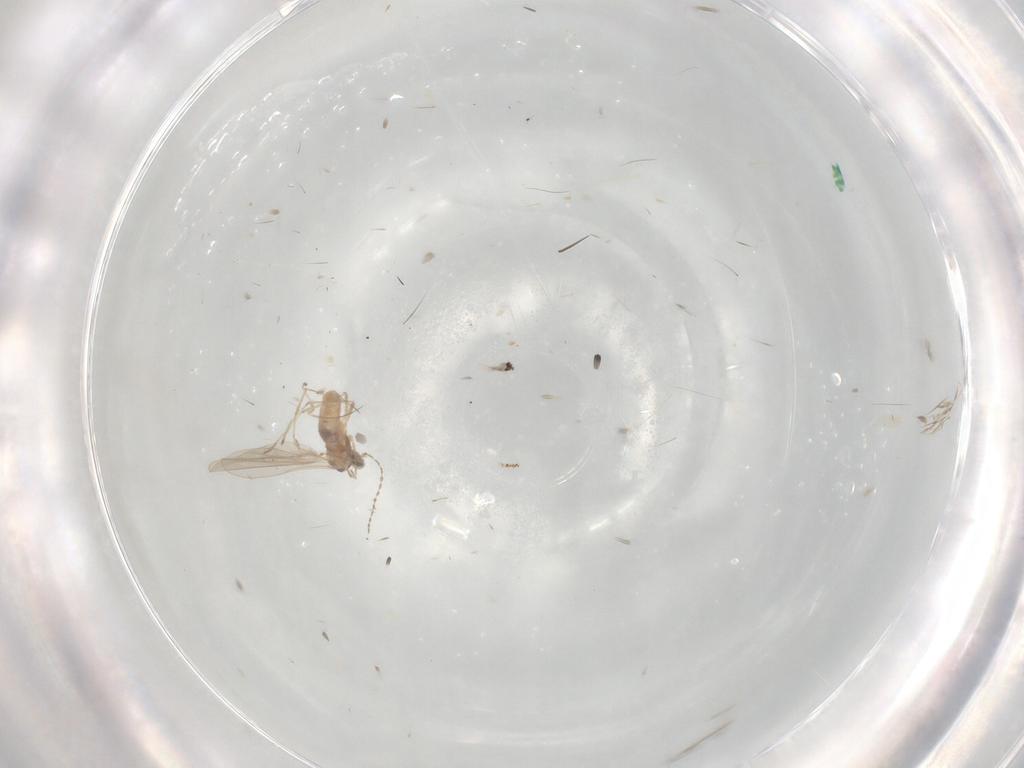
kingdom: Animalia
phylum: Arthropoda
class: Insecta
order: Diptera
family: Cecidomyiidae
